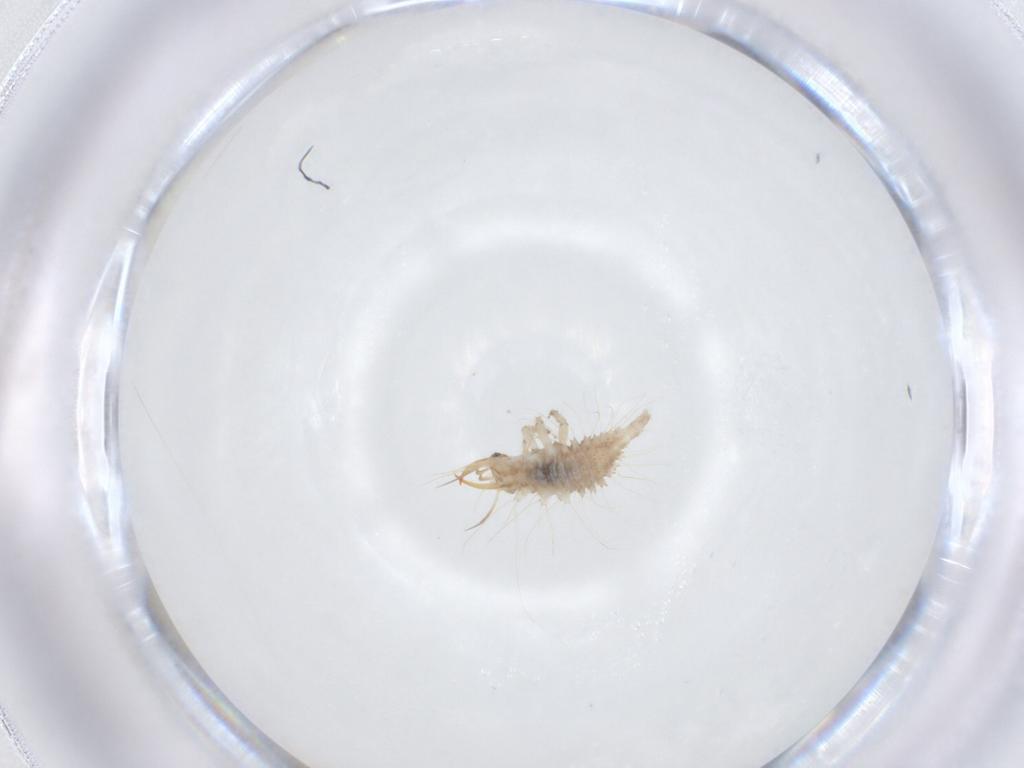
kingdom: Animalia
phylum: Arthropoda
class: Insecta
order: Neuroptera
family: Chrysopidae
